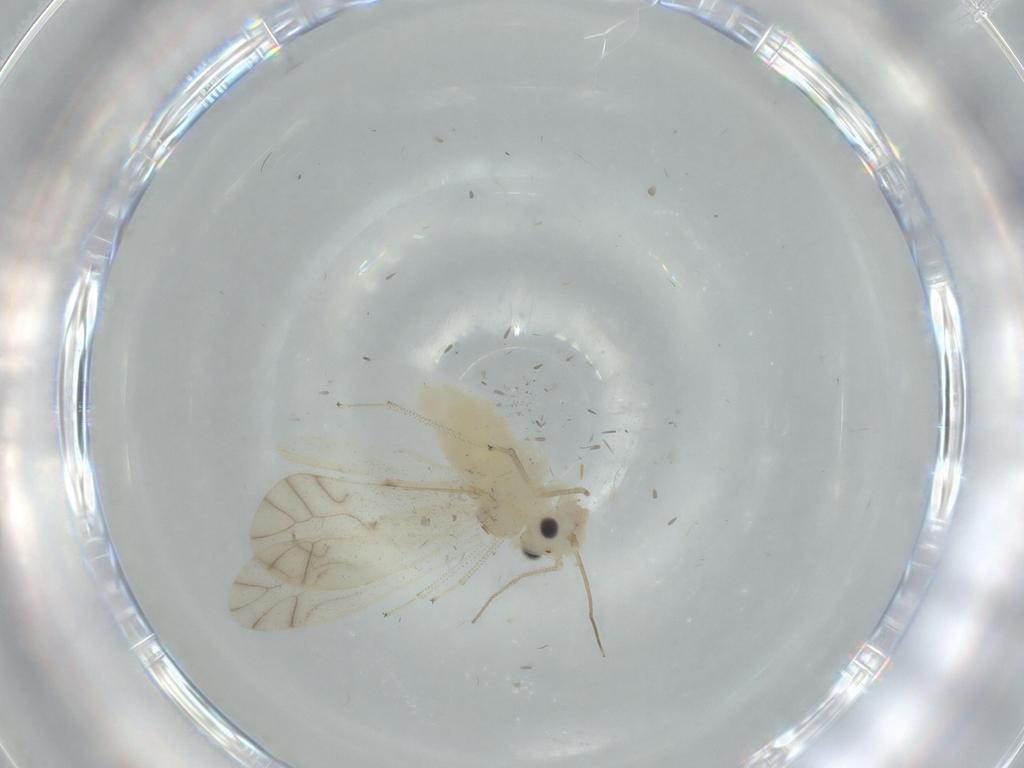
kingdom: Animalia
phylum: Arthropoda
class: Insecta
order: Psocodea
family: Caeciliusidae
